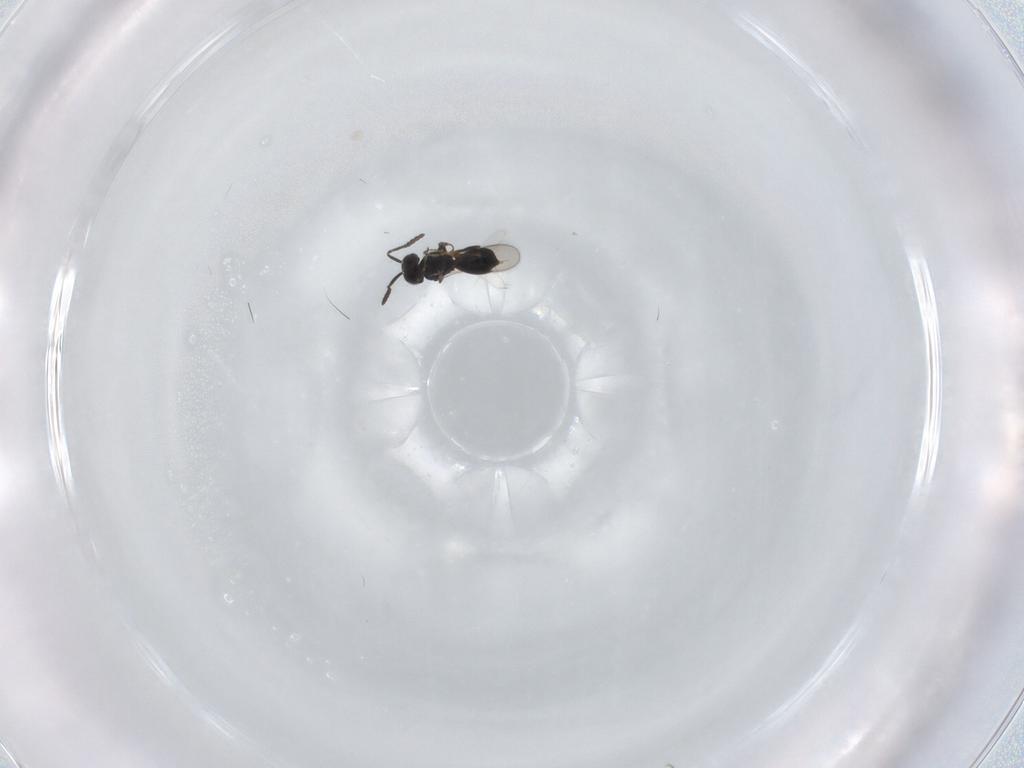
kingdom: Animalia
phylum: Arthropoda
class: Insecta
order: Hymenoptera
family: Scelionidae
